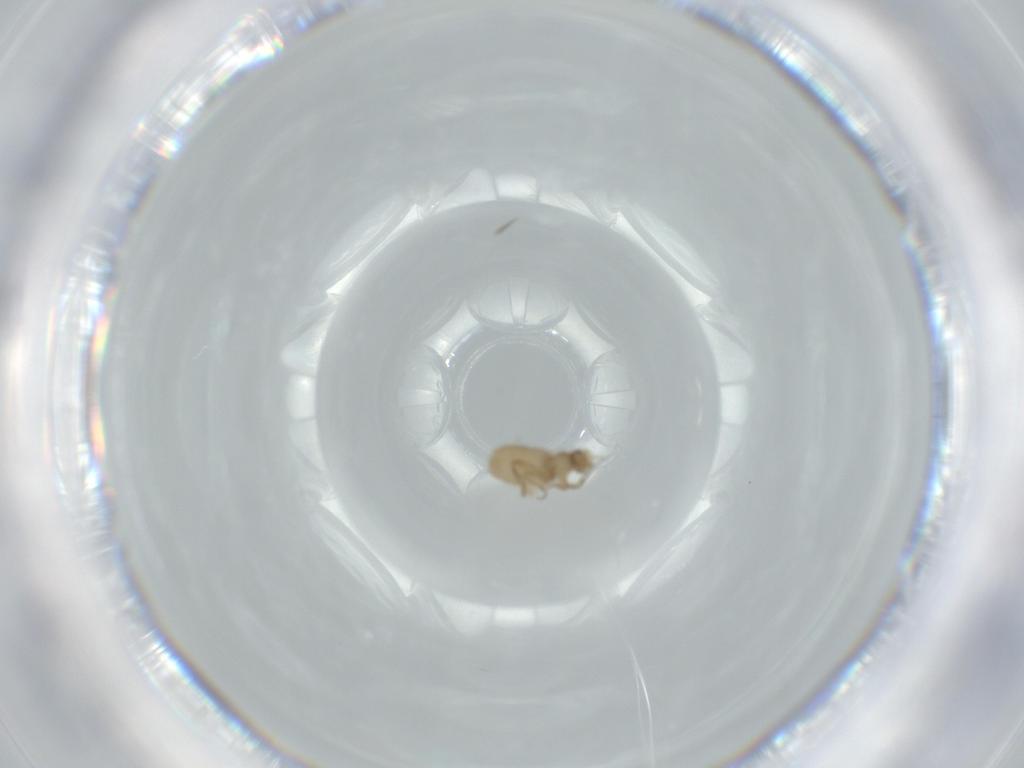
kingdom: Animalia
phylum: Arthropoda
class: Insecta
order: Diptera
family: Phoridae
